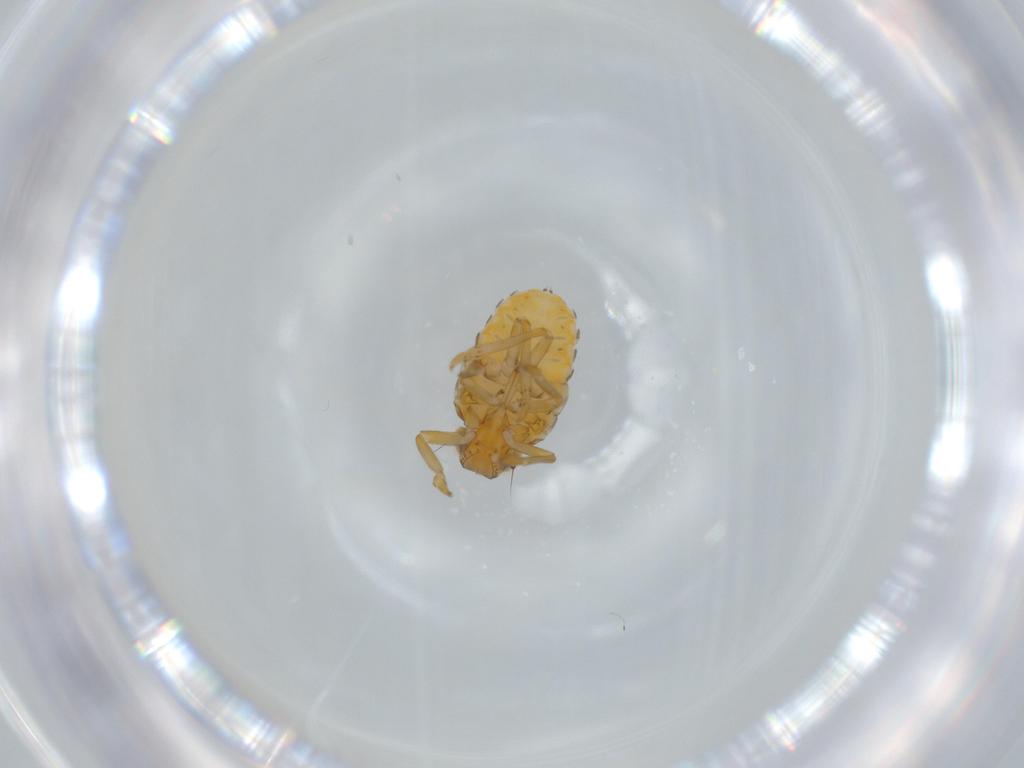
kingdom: Animalia
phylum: Arthropoda
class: Insecta
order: Hemiptera
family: Issidae
